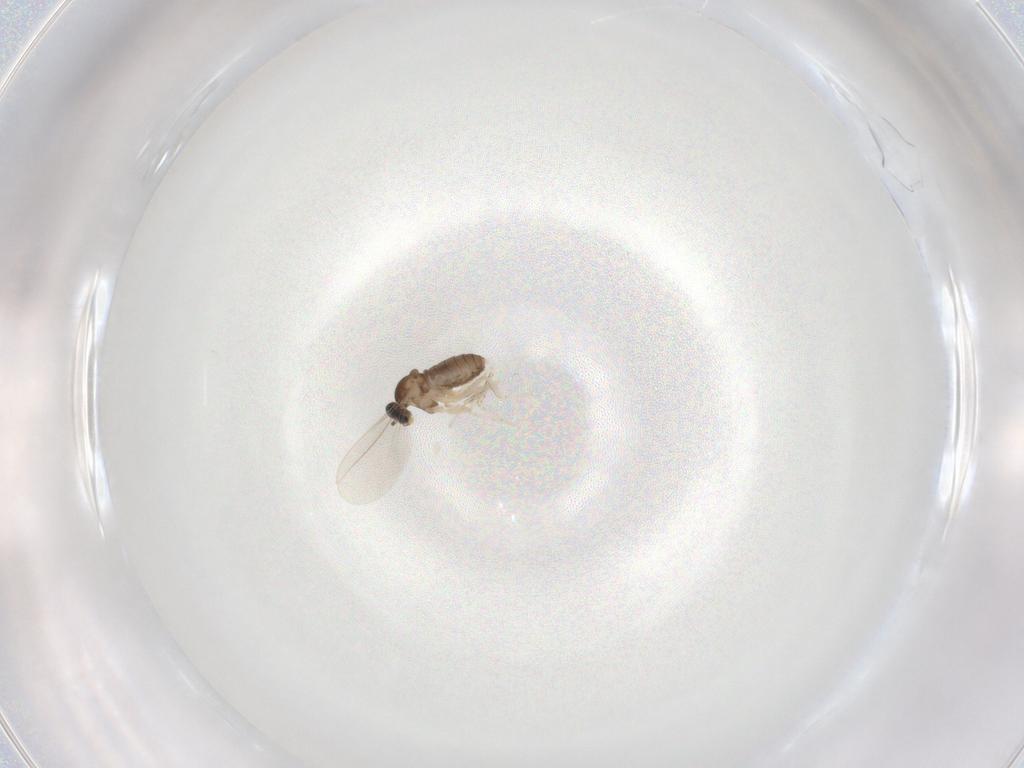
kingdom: Animalia
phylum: Arthropoda
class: Insecta
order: Diptera
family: Cecidomyiidae
